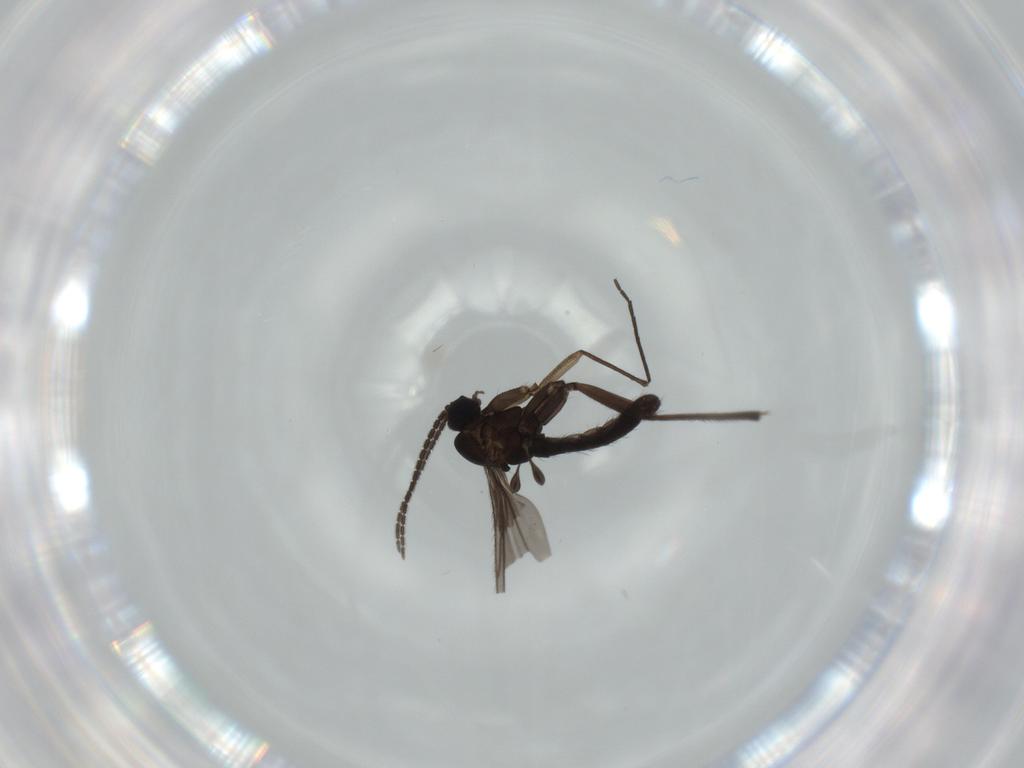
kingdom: Animalia
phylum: Arthropoda
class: Insecta
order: Diptera
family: Sciaridae
